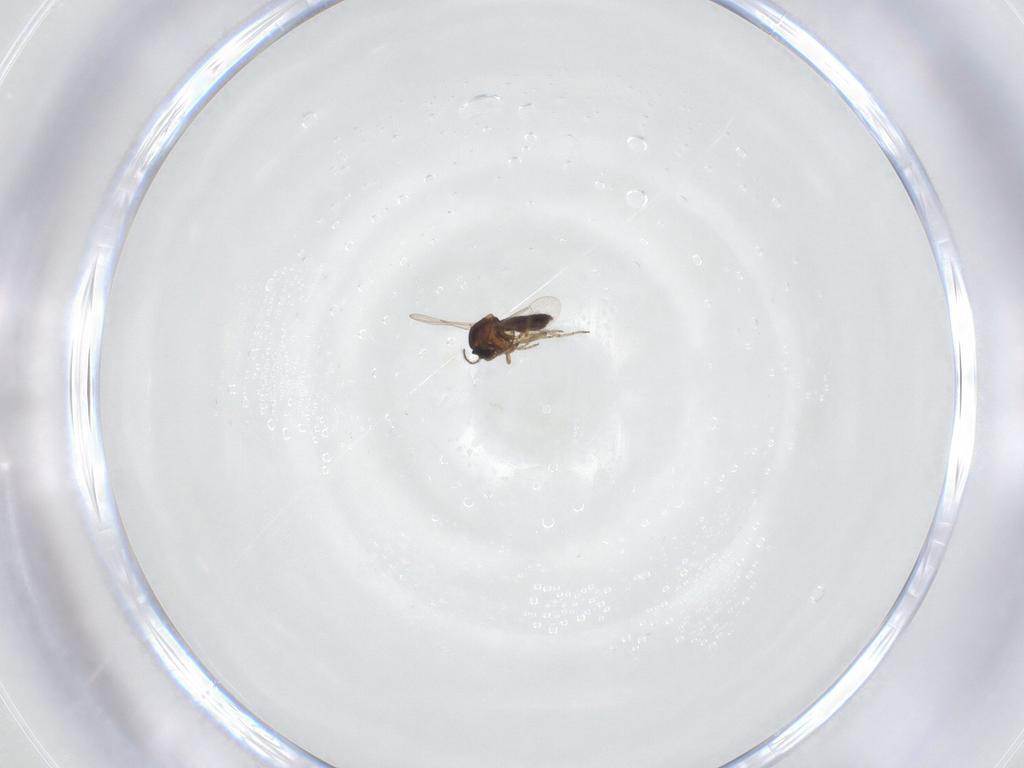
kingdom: Animalia
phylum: Arthropoda
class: Insecta
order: Diptera
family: Ceratopogonidae
